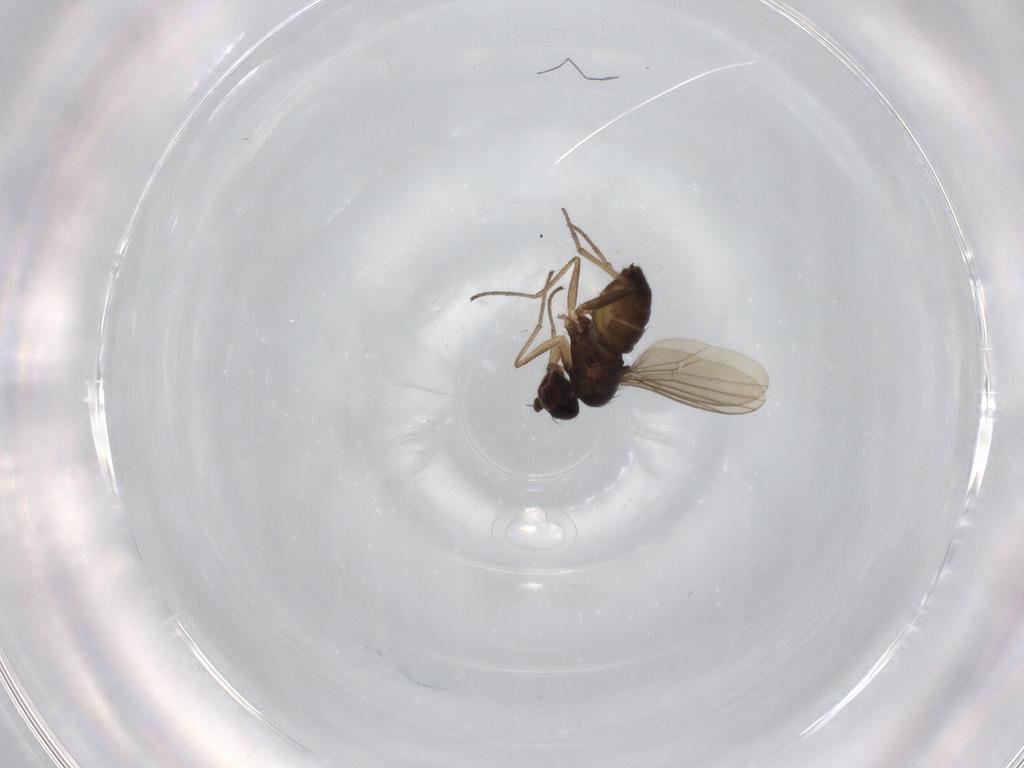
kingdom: Animalia
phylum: Arthropoda
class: Insecta
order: Diptera
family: Dolichopodidae
